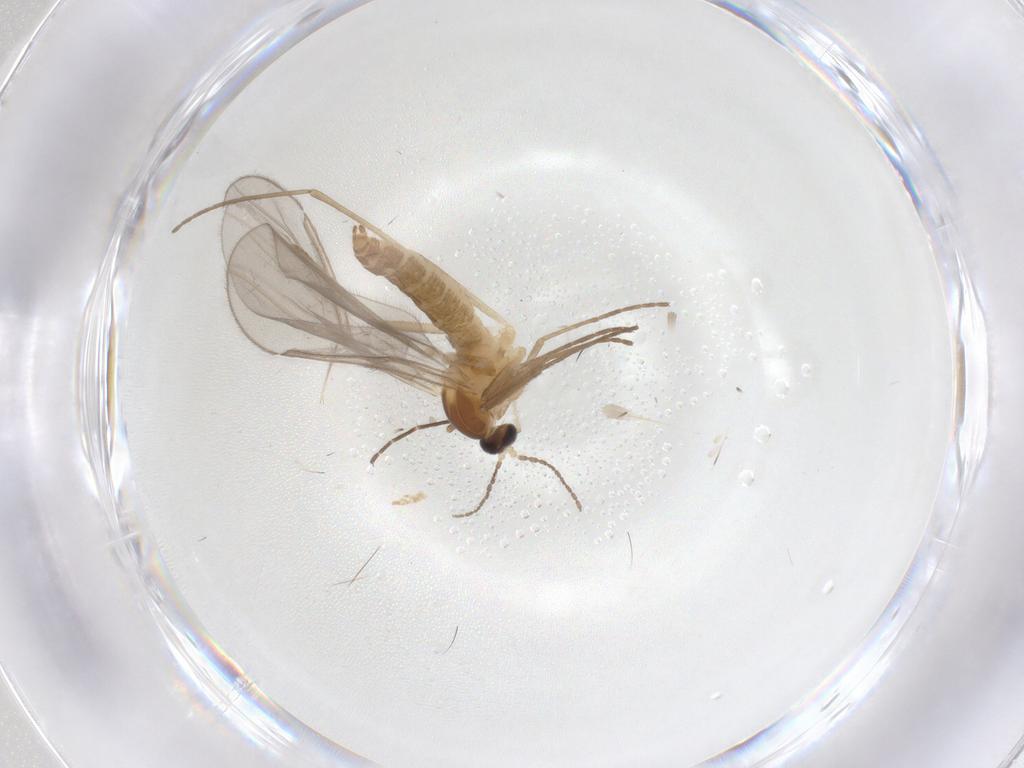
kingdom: Animalia
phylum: Arthropoda
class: Insecta
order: Diptera
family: Cecidomyiidae
